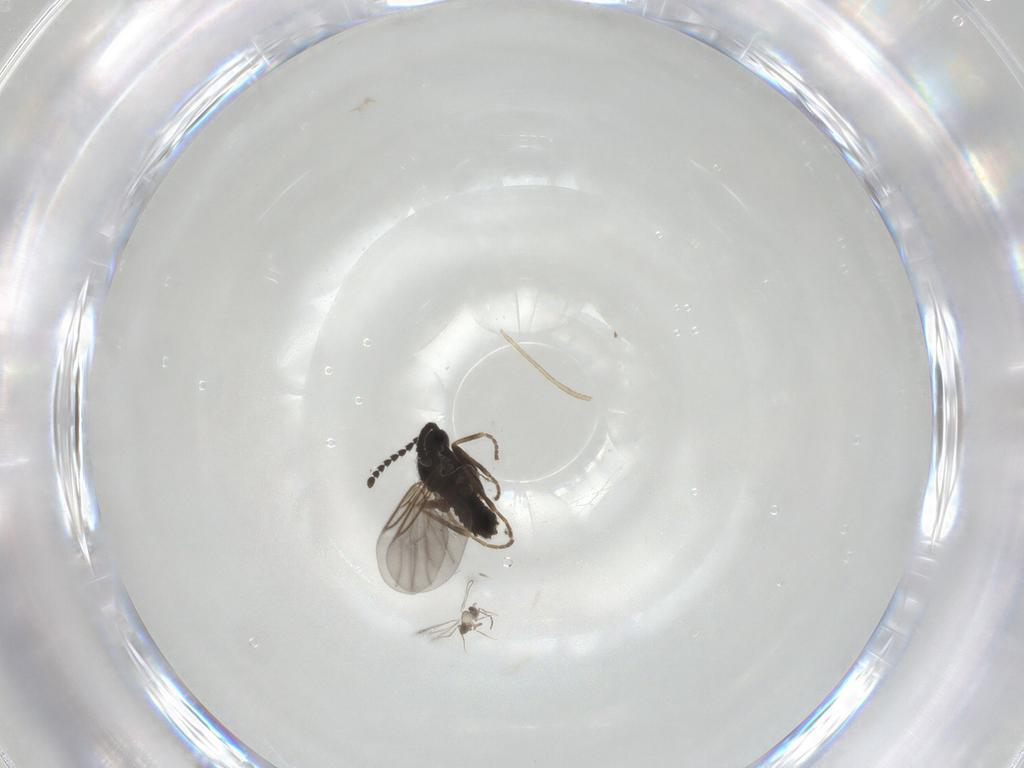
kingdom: Animalia
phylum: Arthropoda
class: Insecta
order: Diptera
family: Scatopsidae
